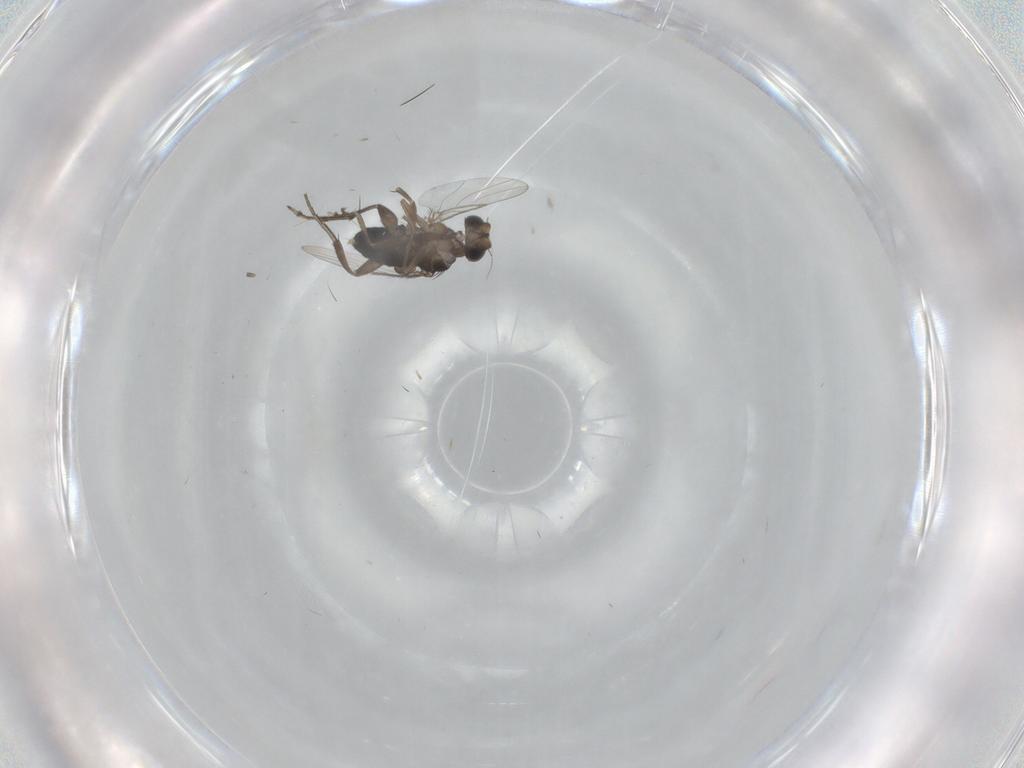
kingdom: Animalia
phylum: Arthropoda
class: Insecta
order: Diptera
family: Phoridae
